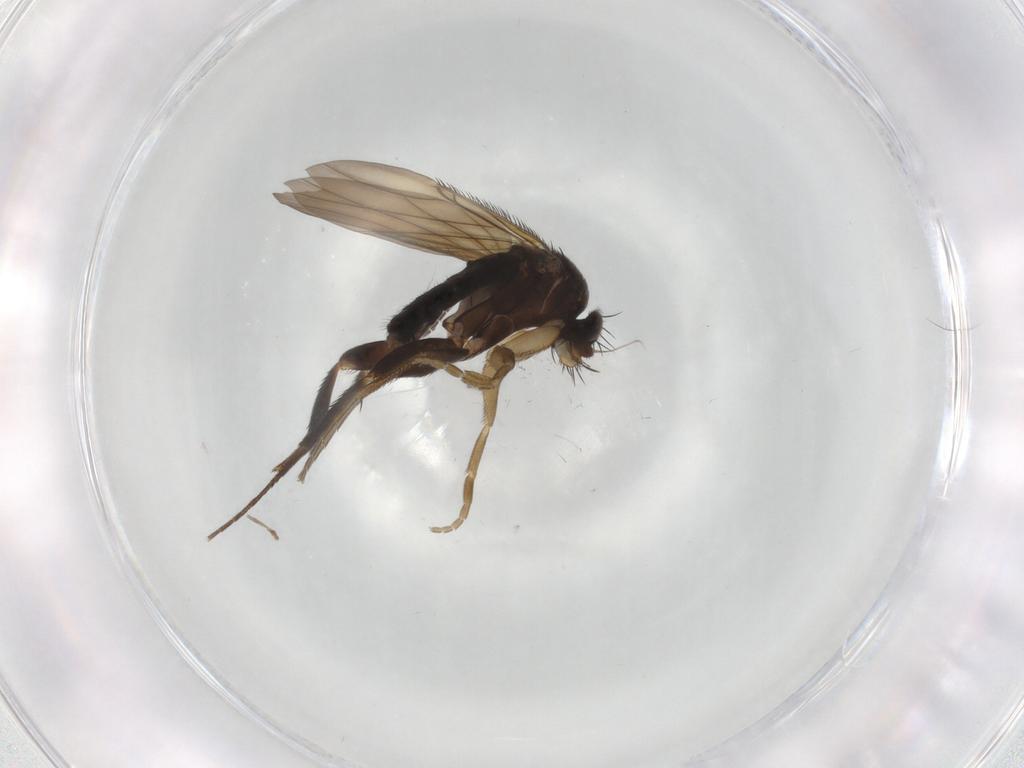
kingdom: Animalia
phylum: Arthropoda
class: Insecta
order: Diptera
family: Phoridae
